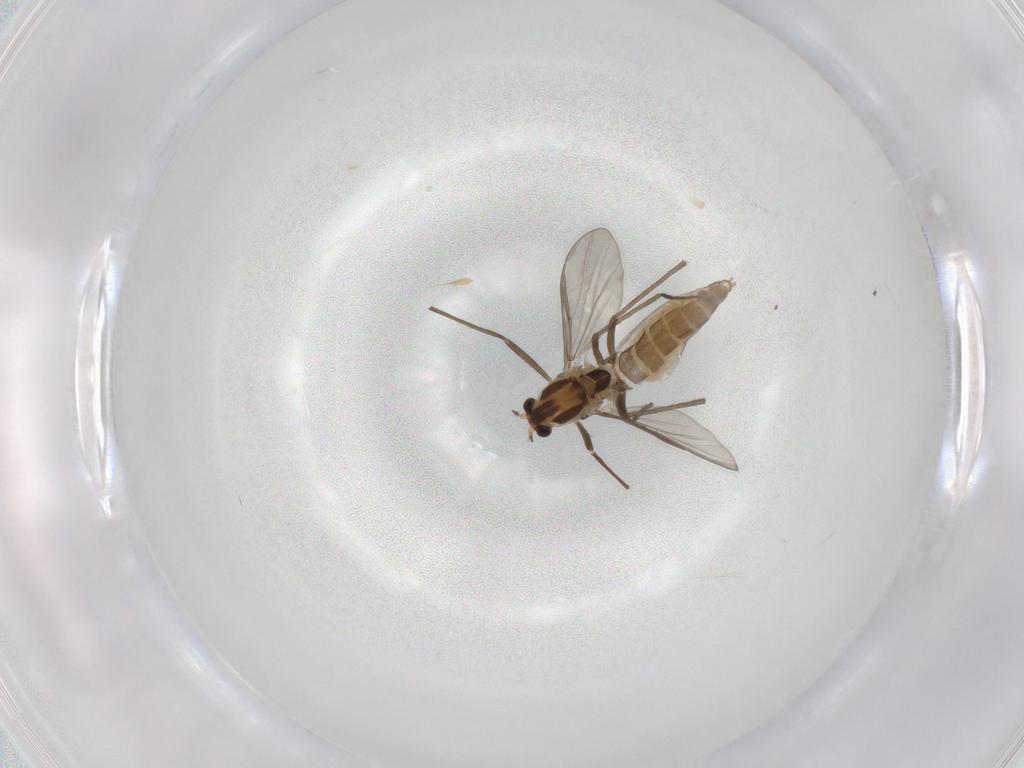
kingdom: Animalia
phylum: Arthropoda
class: Insecta
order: Diptera
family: Chironomidae
